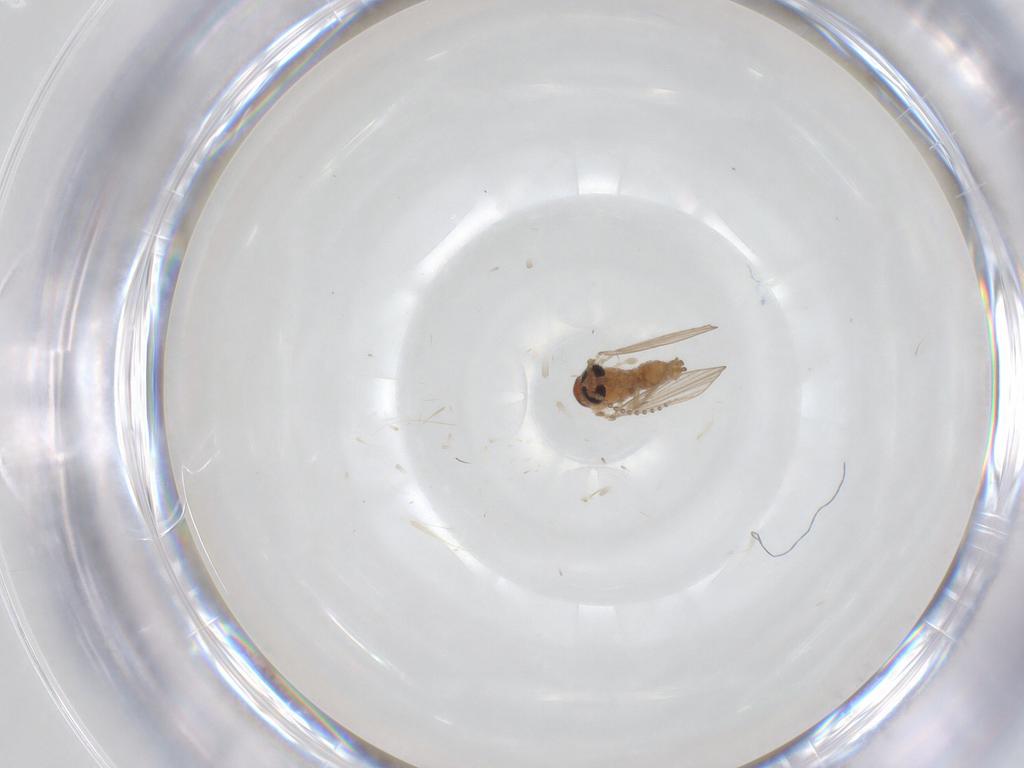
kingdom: Animalia
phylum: Arthropoda
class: Insecta
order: Diptera
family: Psychodidae
